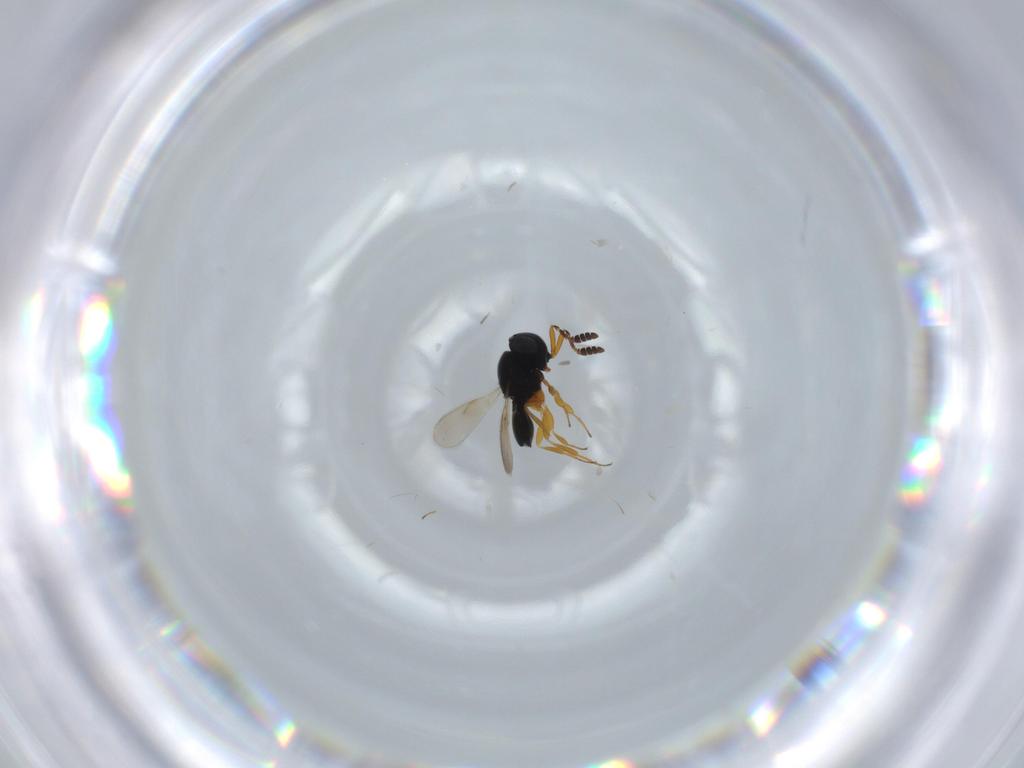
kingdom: Animalia
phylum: Arthropoda
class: Insecta
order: Hymenoptera
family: Scelionidae
